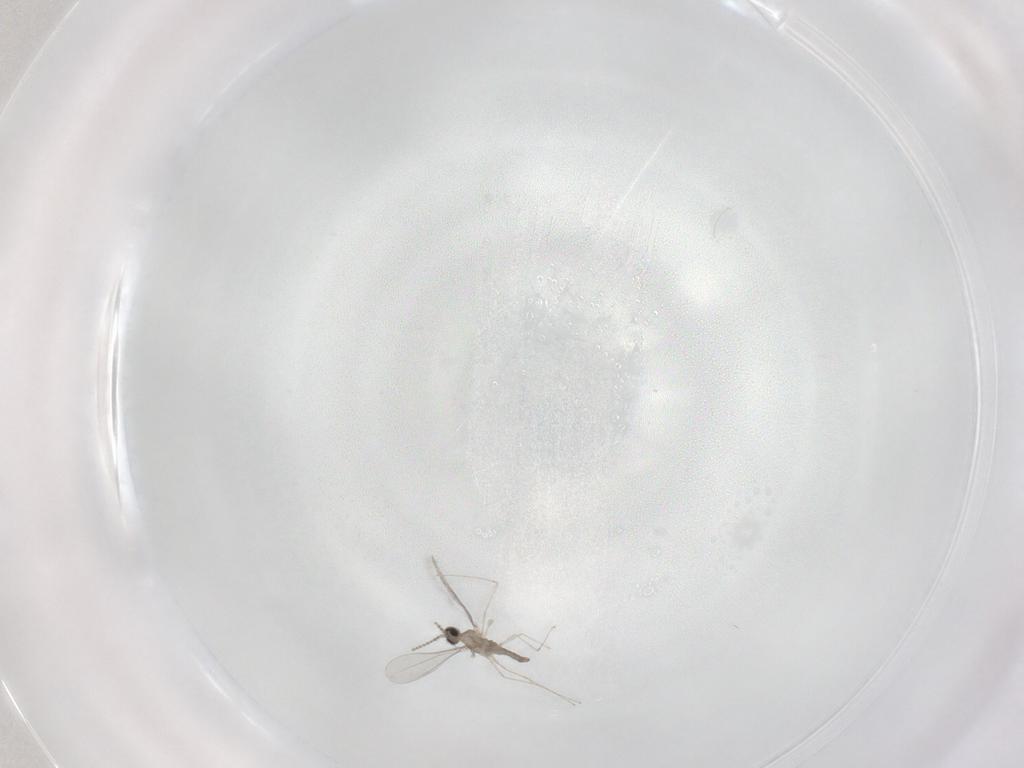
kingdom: Animalia
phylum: Arthropoda
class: Insecta
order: Diptera
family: Cecidomyiidae
